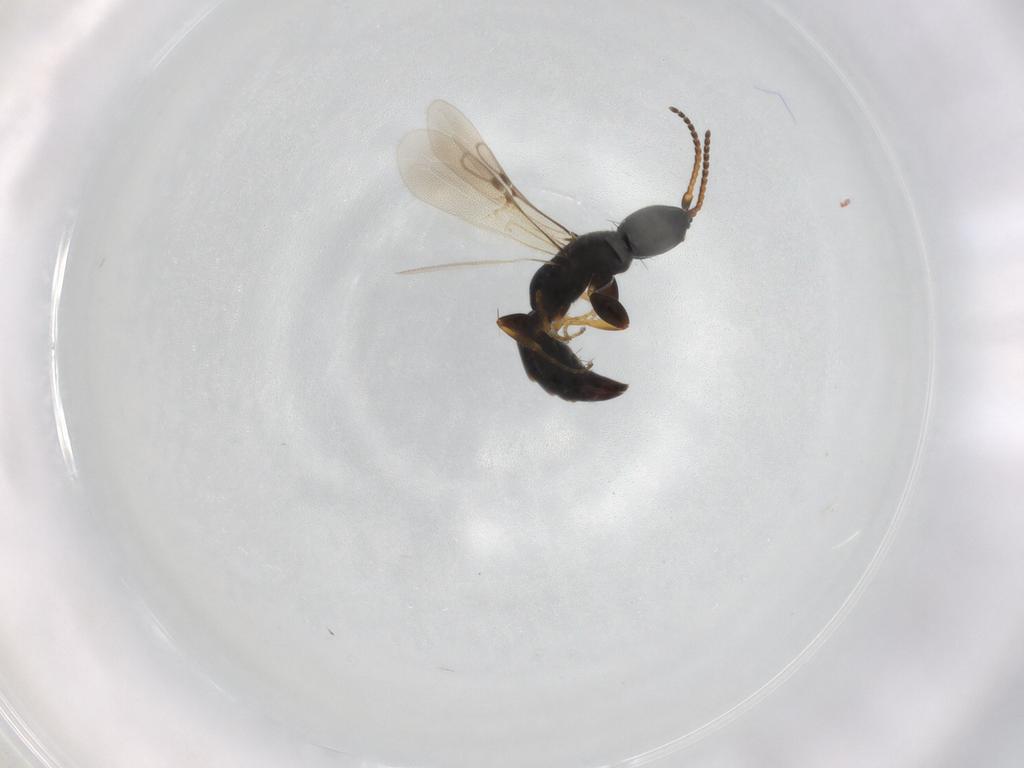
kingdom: Animalia
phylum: Arthropoda
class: Insecta
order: Hymenoptera
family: Bethylidae
